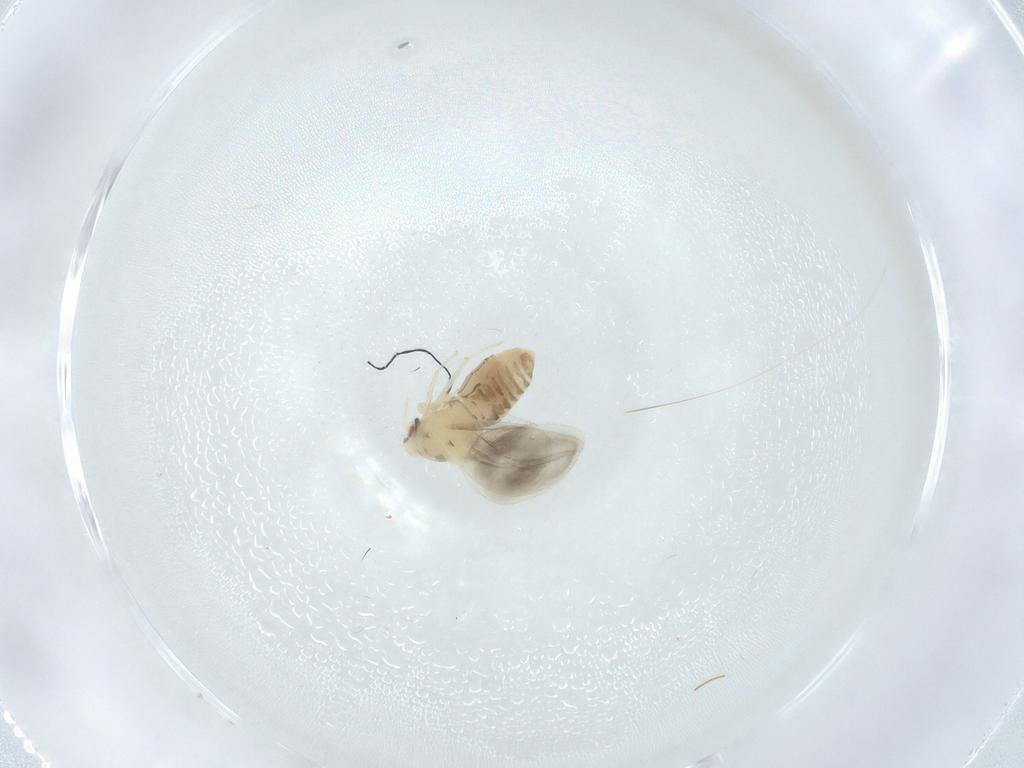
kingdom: Animalia
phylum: Arthropoda
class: Insecta
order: Hemiptera
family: Aleyrodidae
